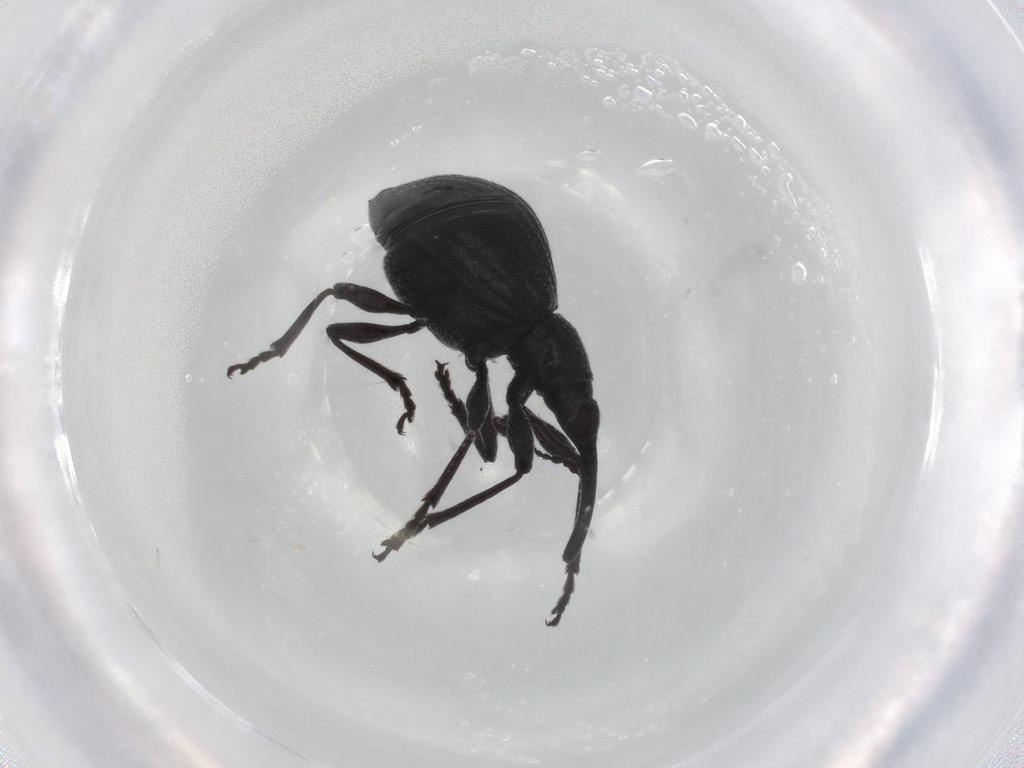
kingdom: Animalia
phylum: Arthropoda
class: Insecta
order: Coleoptera
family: Brentidae
